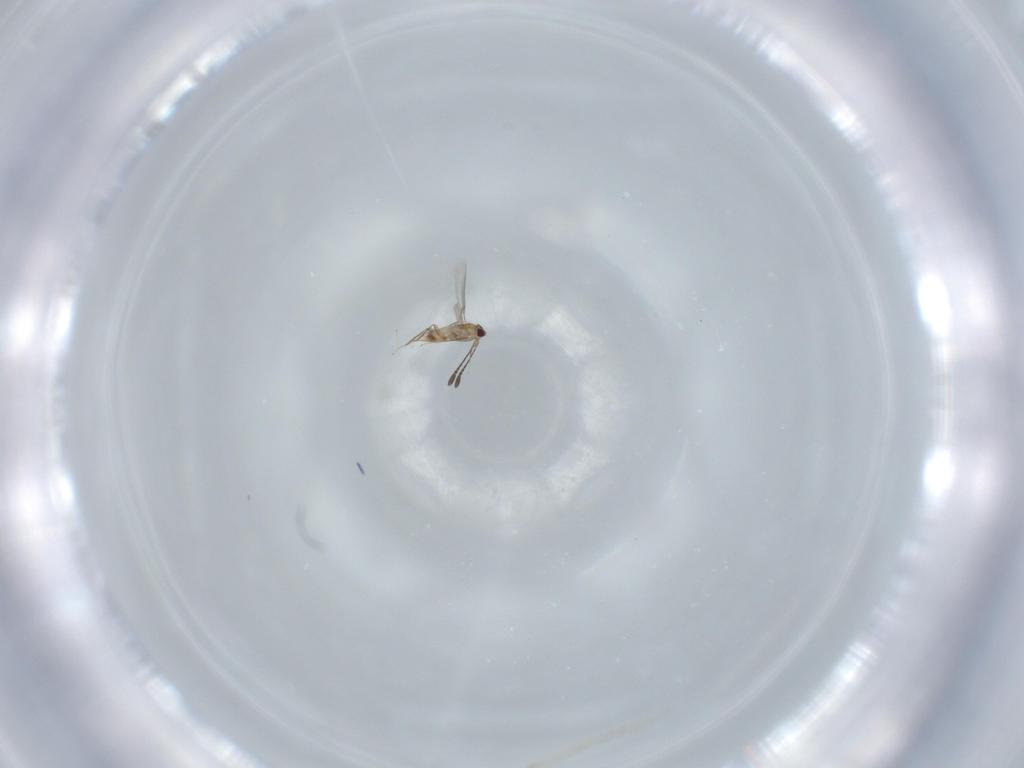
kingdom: Animalia
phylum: Arthropoda
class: Insecta
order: Hymenoptera
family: Mymaridae
